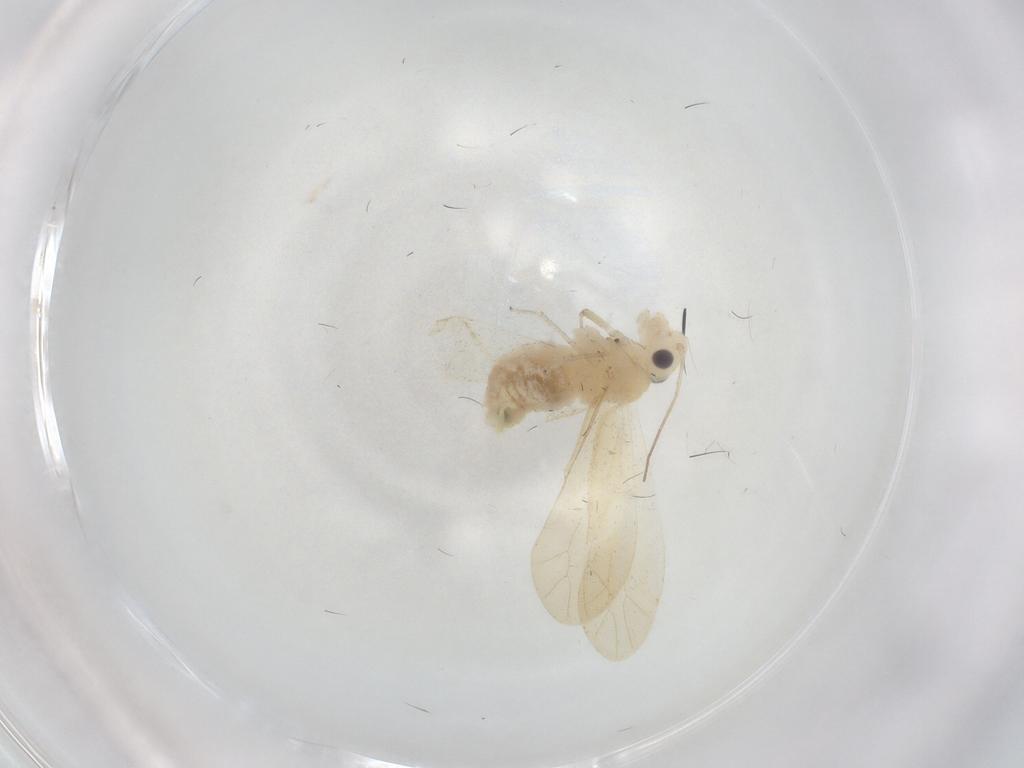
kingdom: Animalia
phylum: Arthropoda
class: Insecta
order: Psocodea
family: Caeciliusidae
